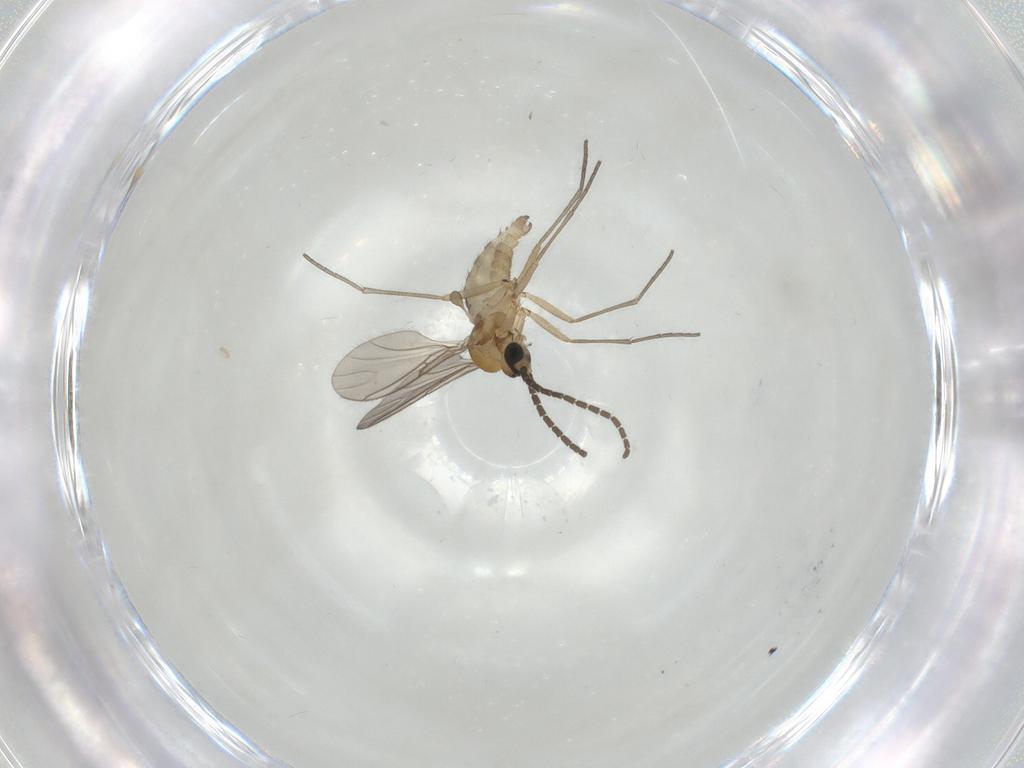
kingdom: Animalia
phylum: Arthropoda
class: Insecta
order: Diptera
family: Sciaridae
